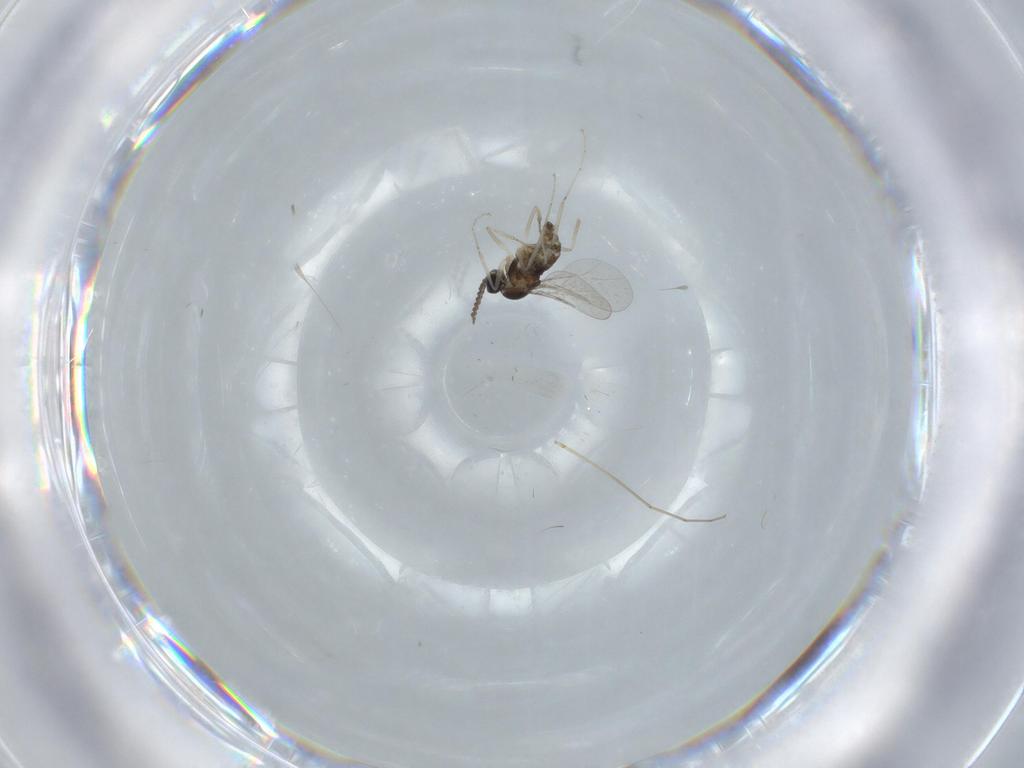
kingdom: Animalia
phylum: Arthropoda
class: Insecta
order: Diptera
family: Cecidomyiidae
